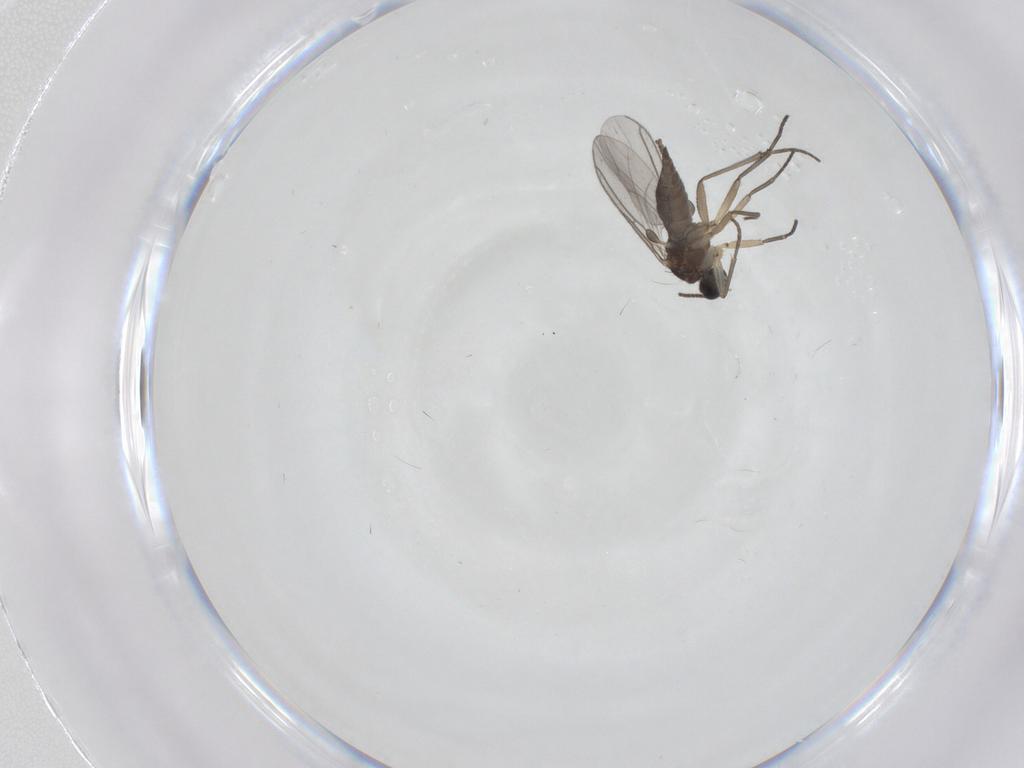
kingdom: Animalia
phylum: Arthropoda
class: Insecta
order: Diptera
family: Sciaridae
